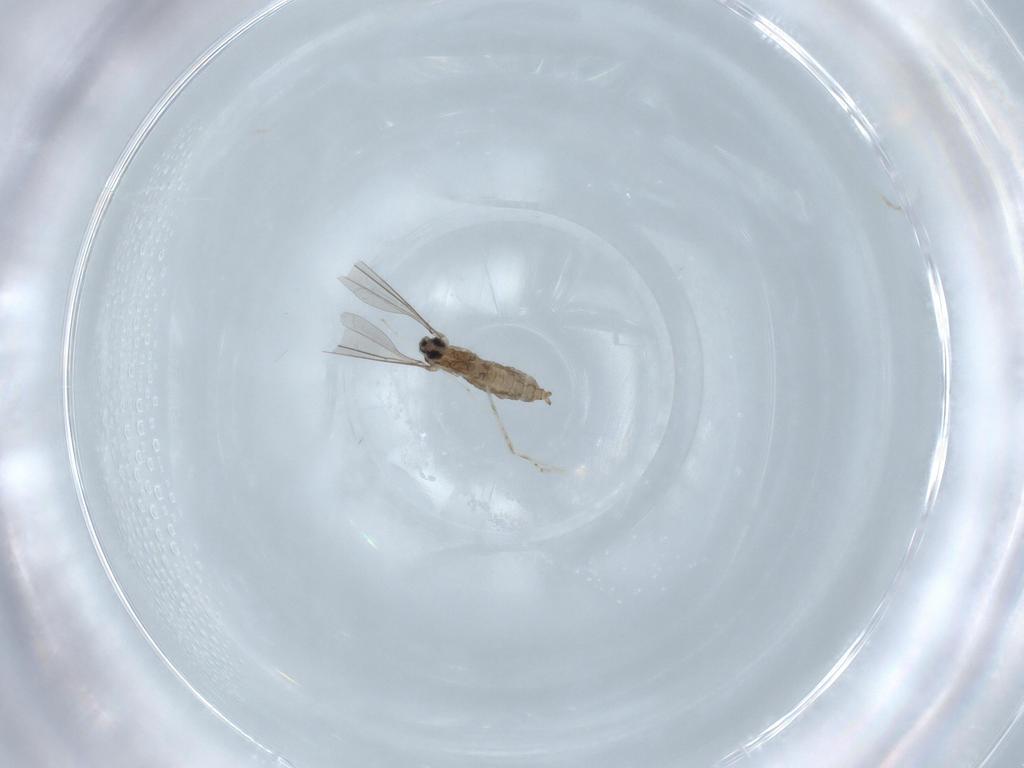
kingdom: Animalia
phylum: Arthropoda
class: Insecta
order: Diptera
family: Cecidomyiidae
